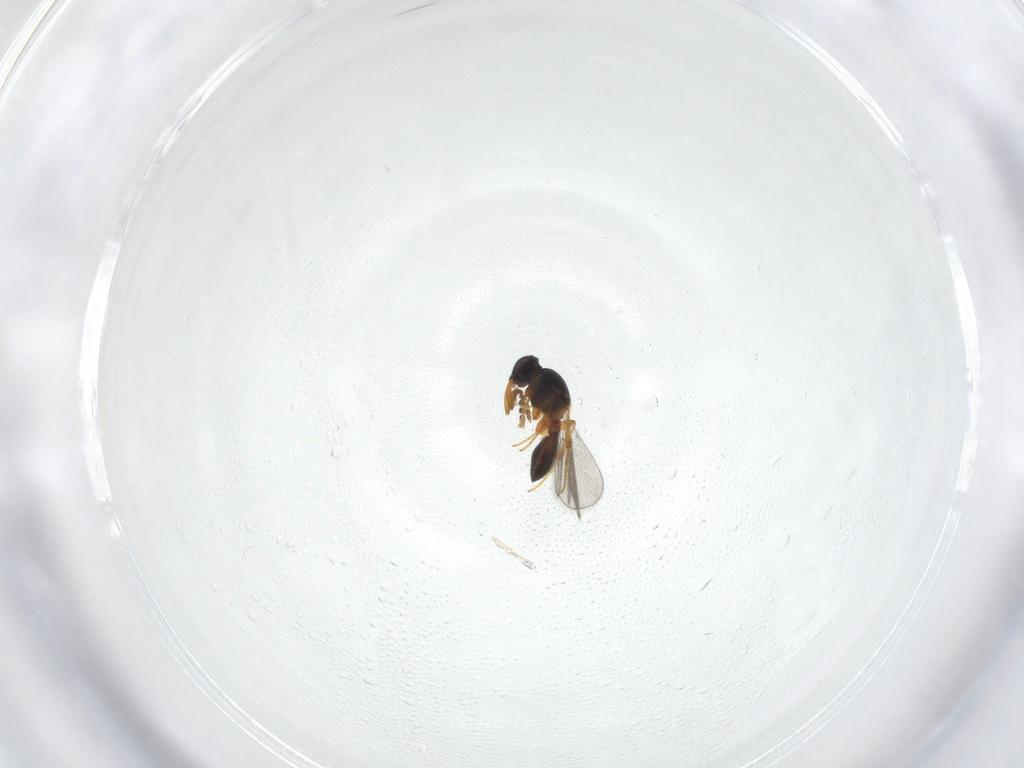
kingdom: Animalia
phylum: Arthropoda
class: Insecta
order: Hymenoptera
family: Platygastridae
